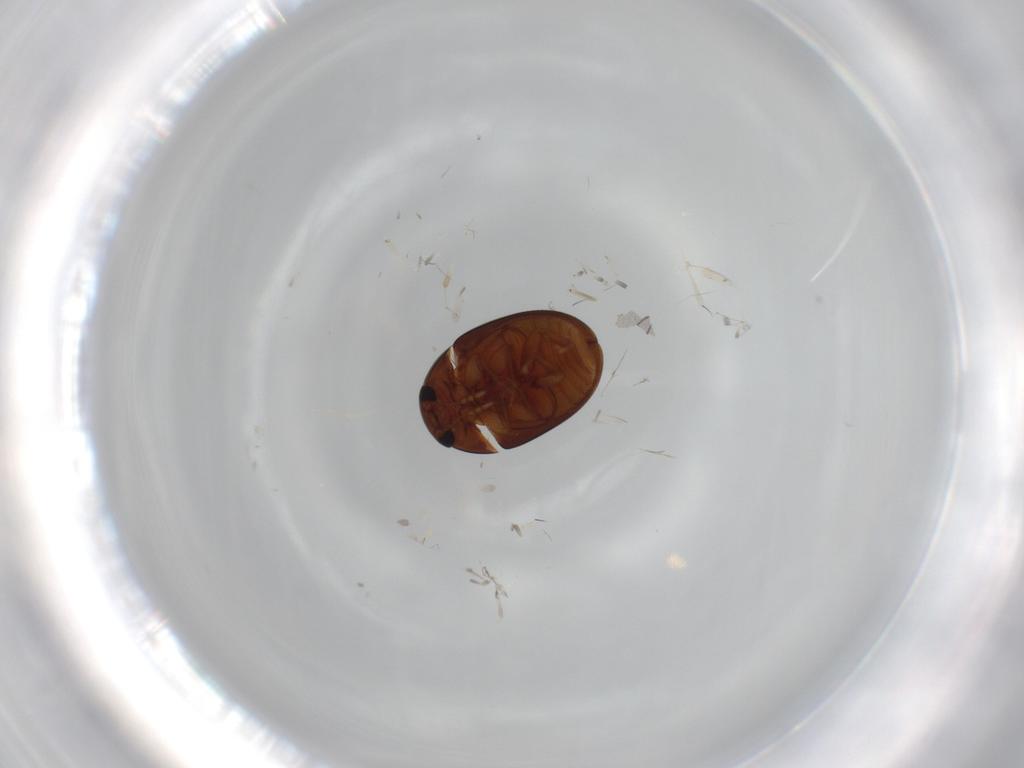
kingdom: Animalia
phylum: Arthropoda
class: Insecta
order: Coleoptera
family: Phalacridae
